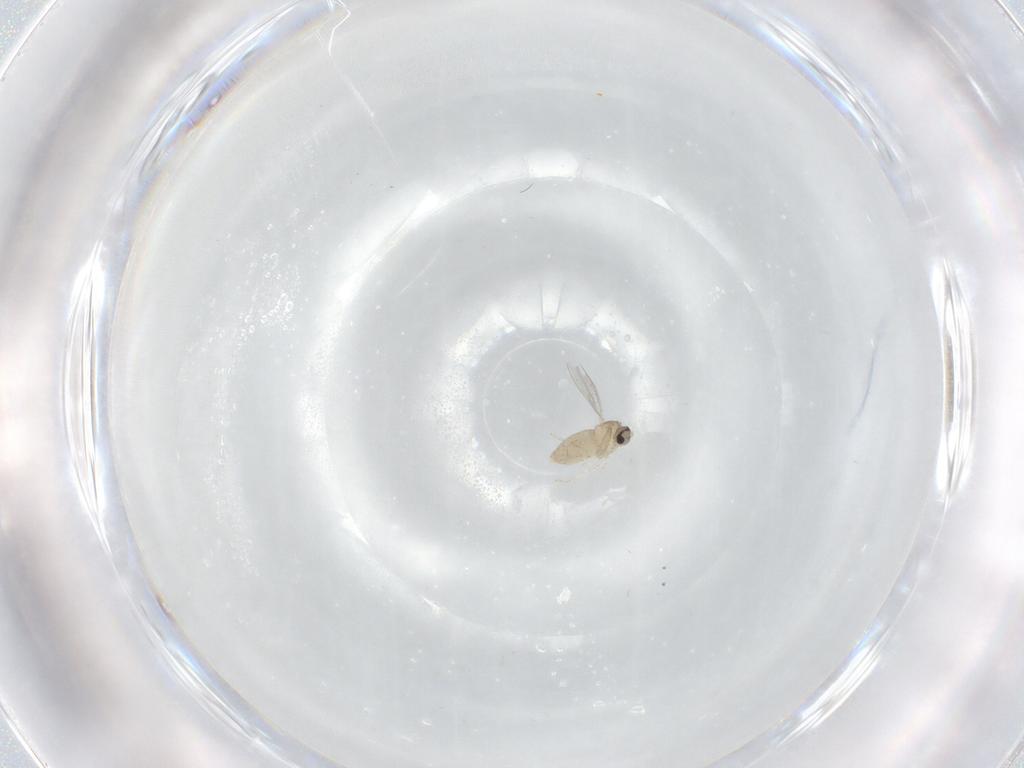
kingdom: Animalia
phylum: Arthropoda
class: Insecta
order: Diptera
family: Cecidomyiidae
